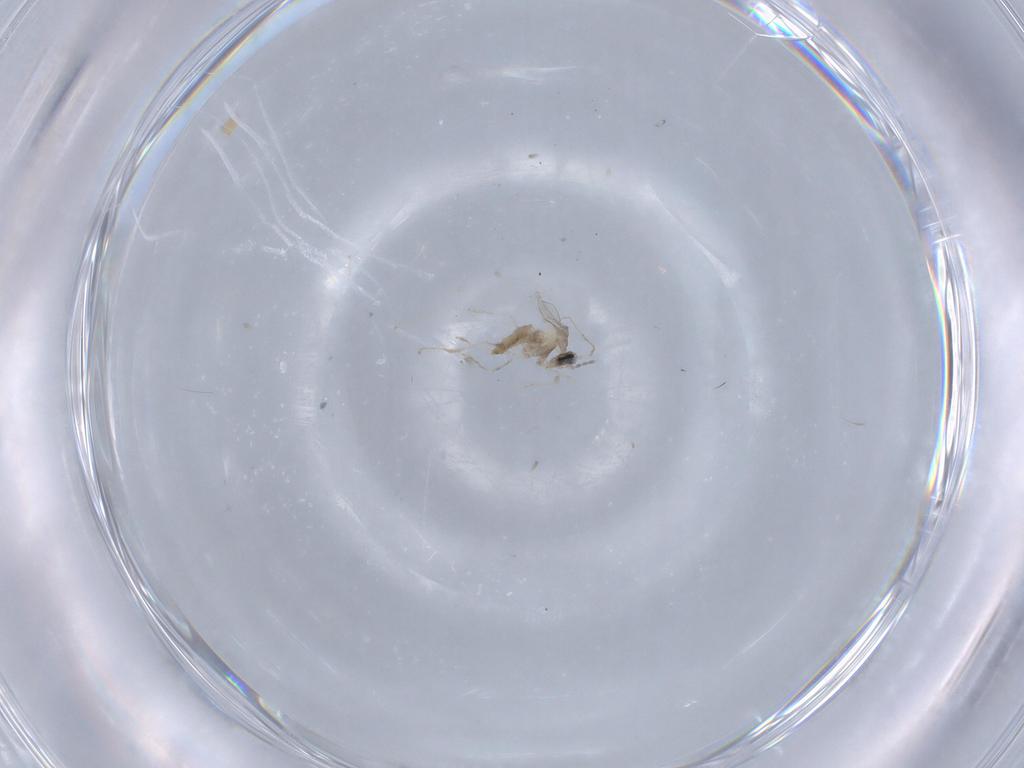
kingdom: Animalia
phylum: Arthropoda
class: Insecta
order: Diptera
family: Cecidomyiidae
